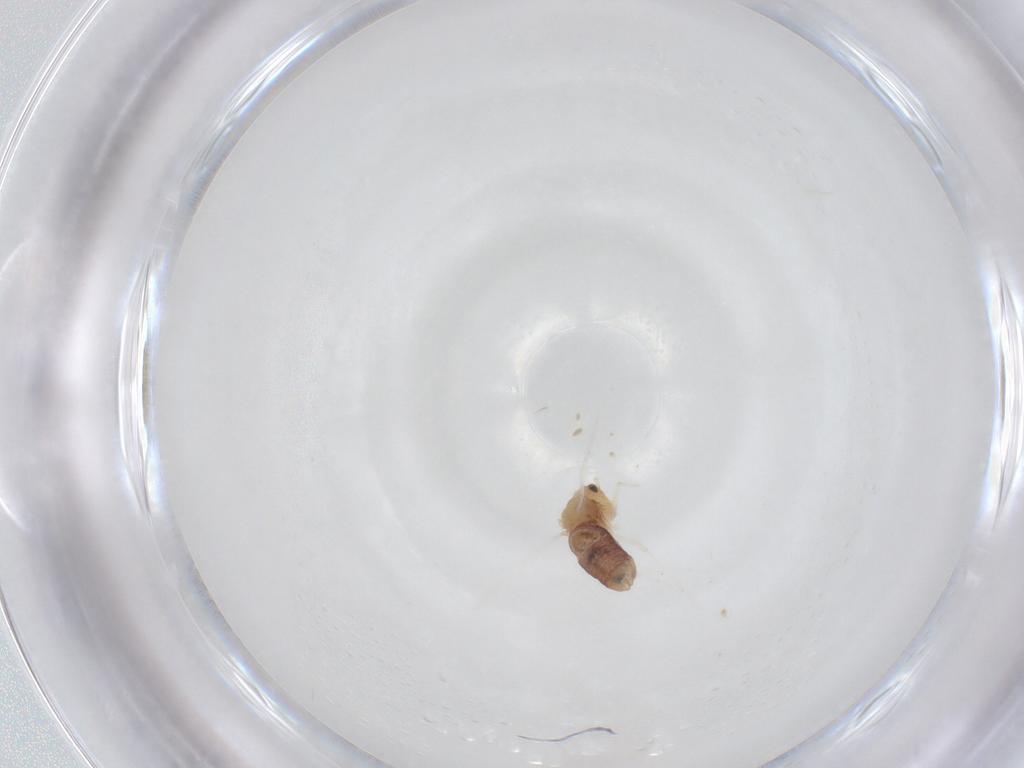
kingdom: Animalia
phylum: Arthropoda
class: Insecta
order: Psocodea
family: Lachesillidae
